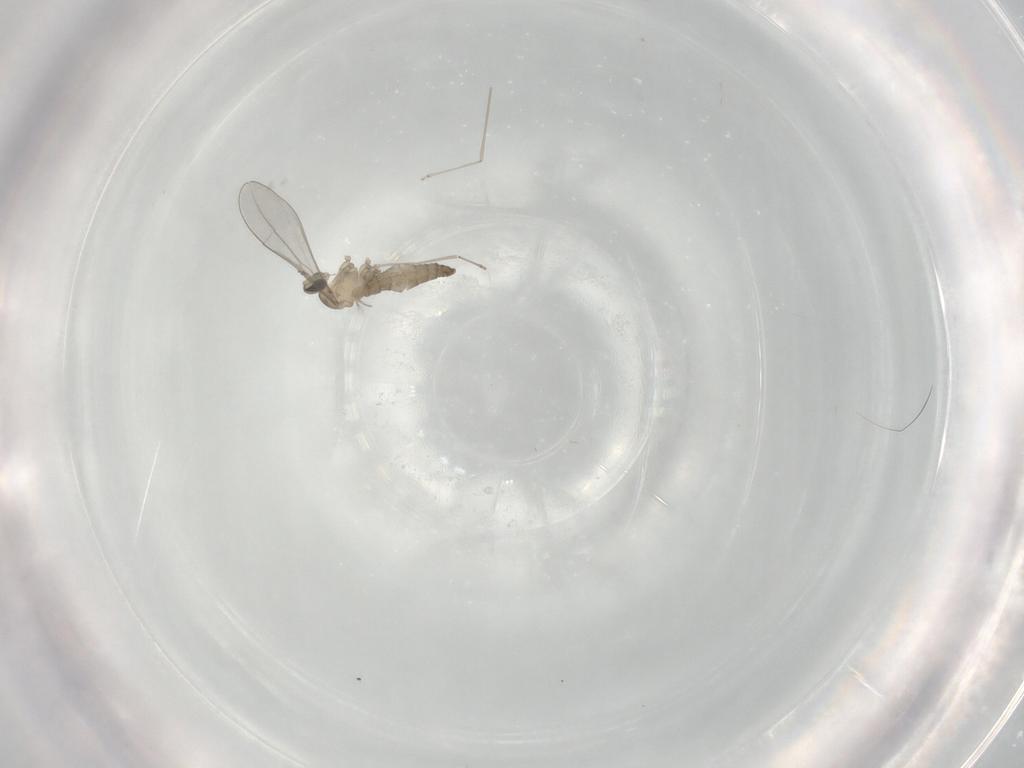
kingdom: Animalia
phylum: Arthropoda
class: Insecta
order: Diptera
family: Cecidomyiidae
